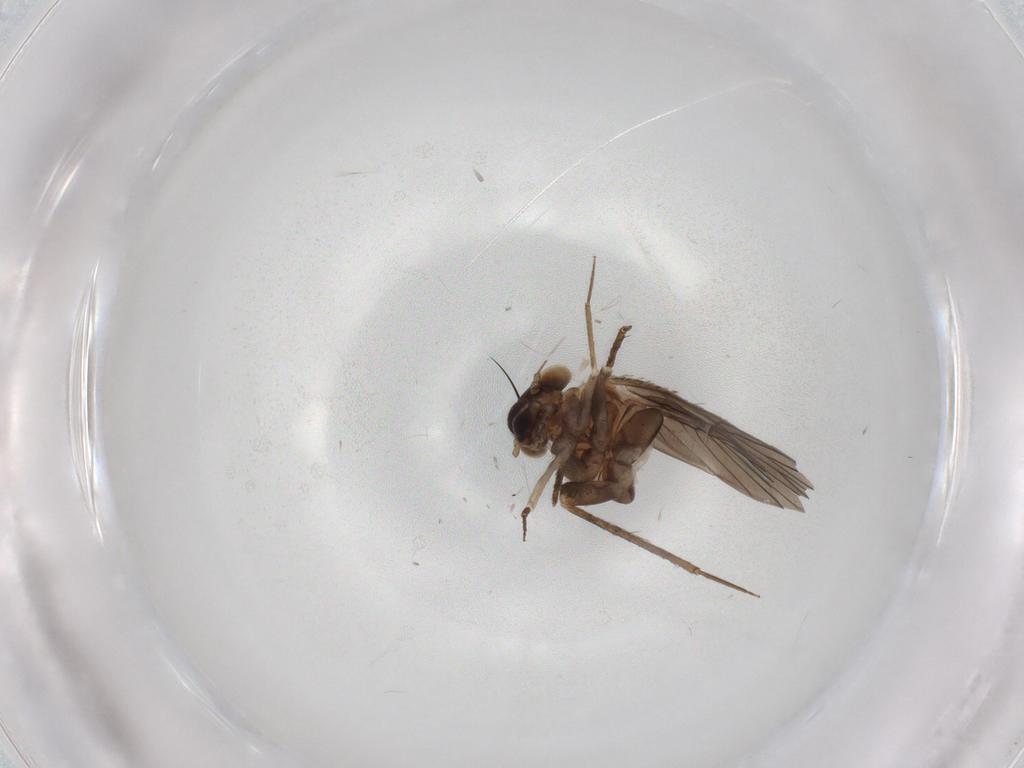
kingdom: Animalia
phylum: Arthropoda
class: Insecta
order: Psocodea
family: Lepidopsocidae
